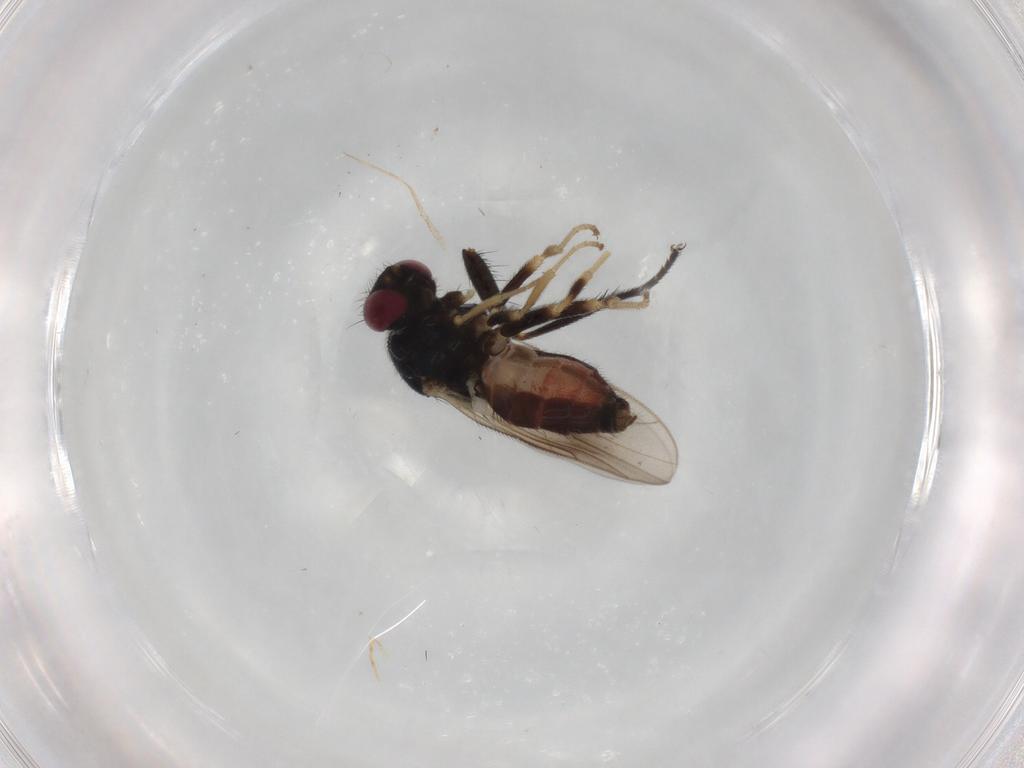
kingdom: Animalia
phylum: Arthropoda
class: Insecta
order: Diptera
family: Chloropidae
